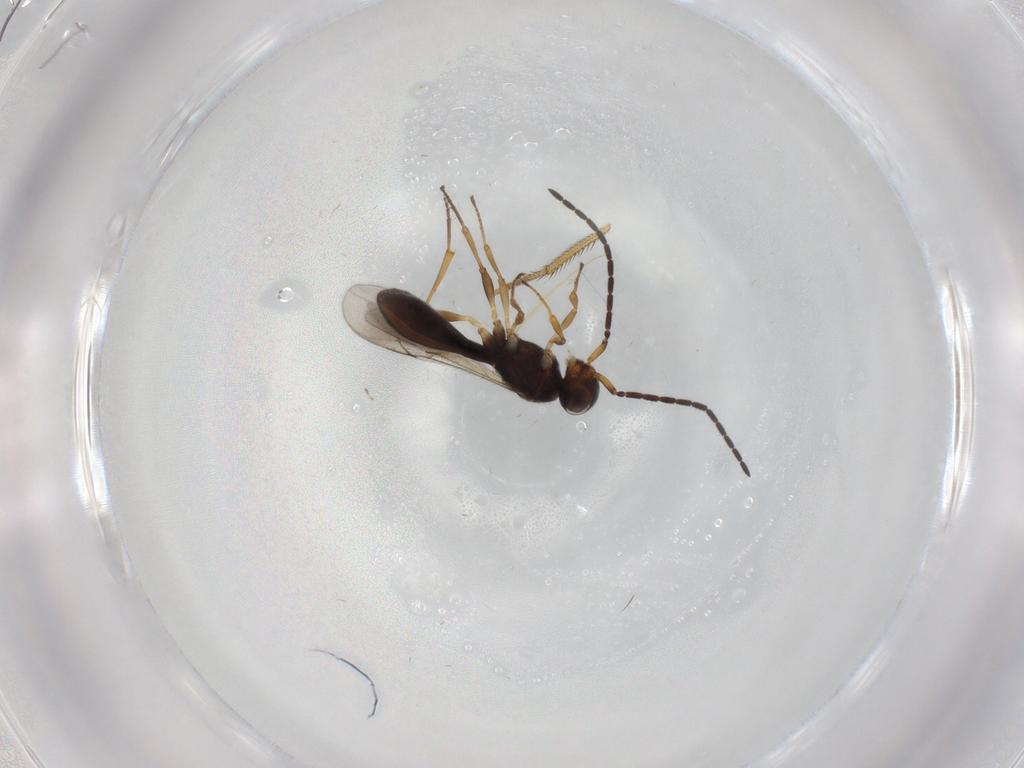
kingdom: Animalia
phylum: Arthropoda
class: Insecta
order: Hymenoptera
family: Scelionidae
